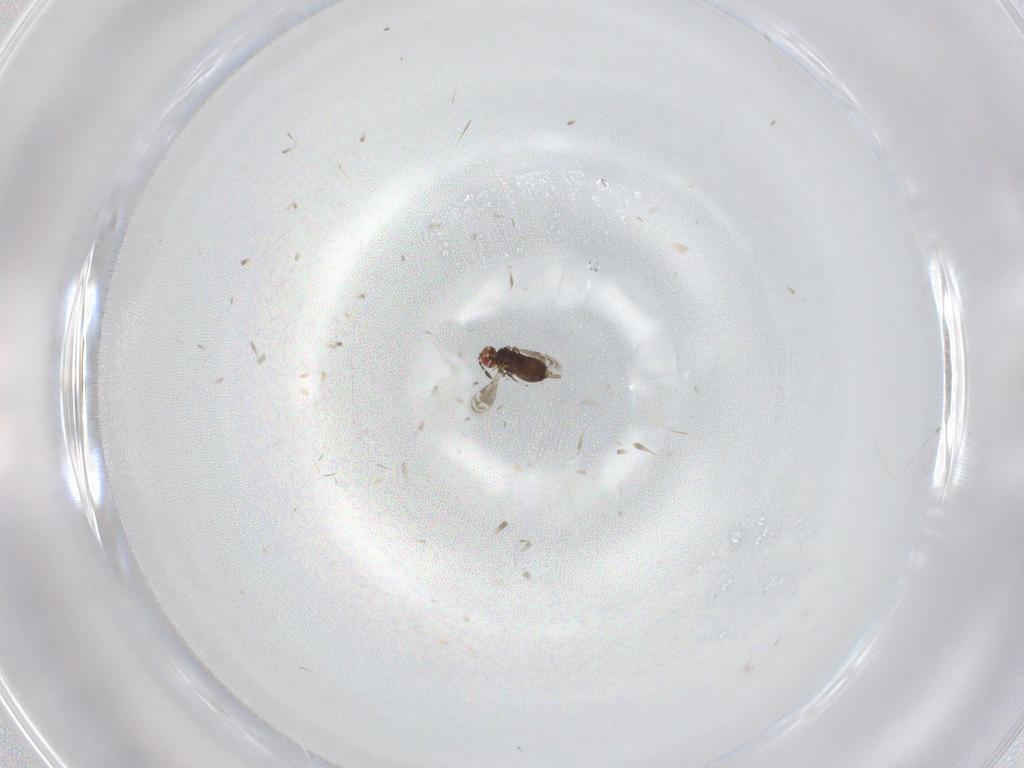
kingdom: Animalia
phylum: Arthropoda
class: Insecta
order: Hymenoptera
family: Azotidae
